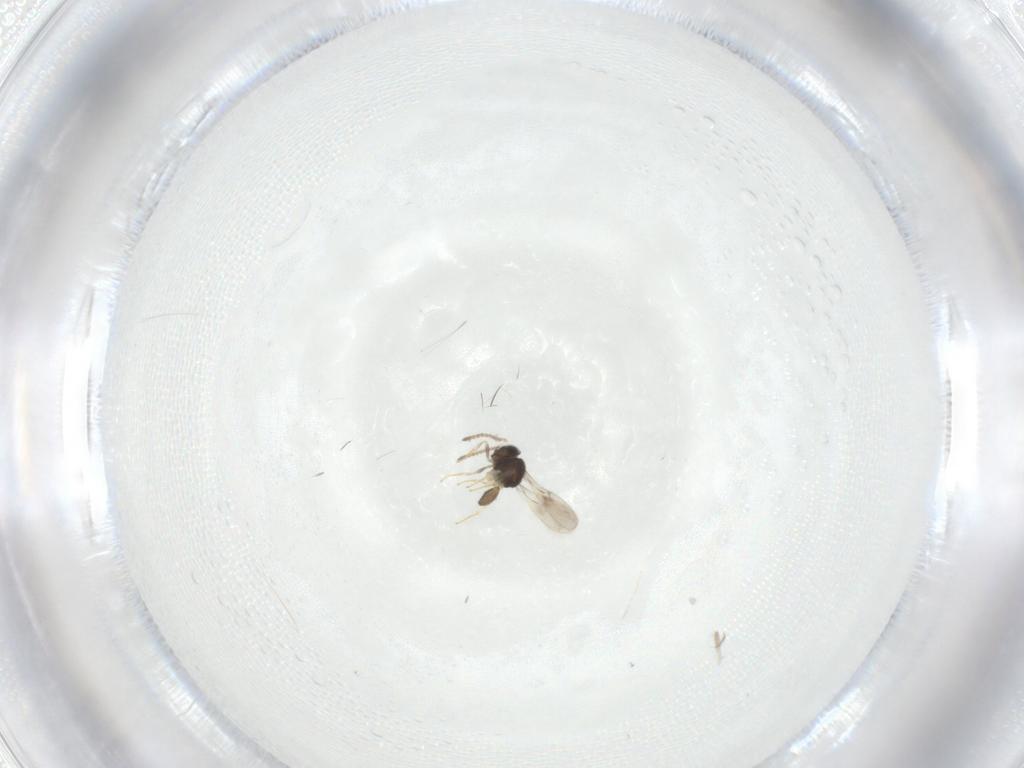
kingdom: Animalia
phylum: Arthropoda
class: Insecta
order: Hymenoptera
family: Scelionidae
